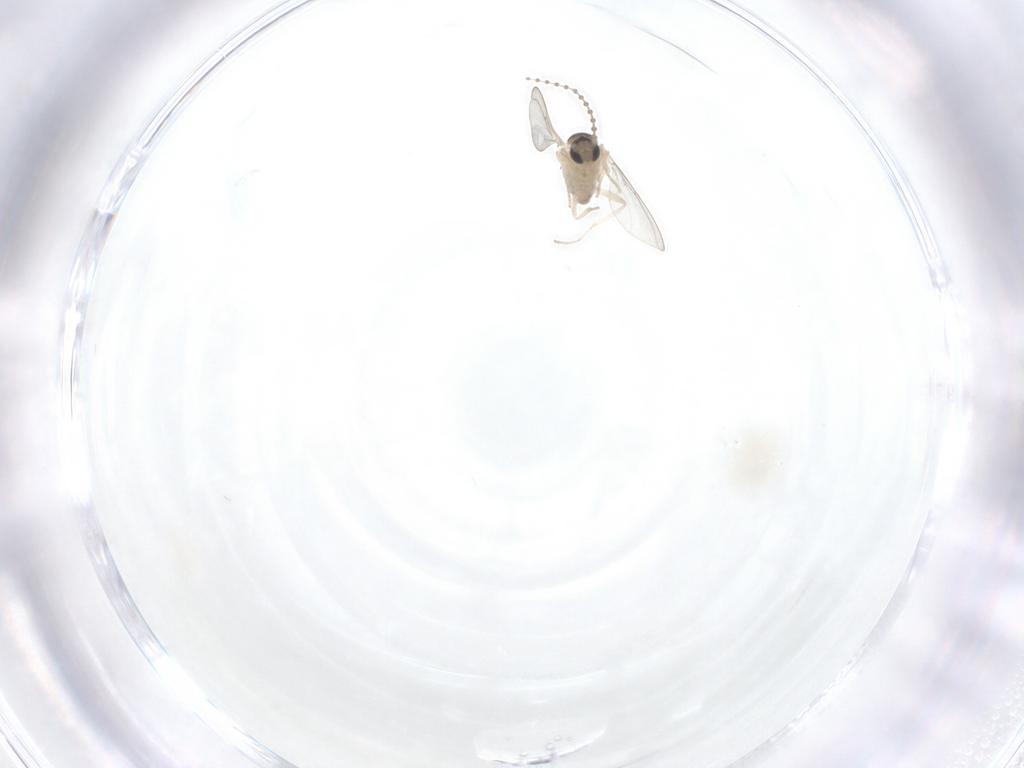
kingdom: Animalia
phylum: Arthropoda
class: Insecta
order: Diptera
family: Cecidomyiidae
